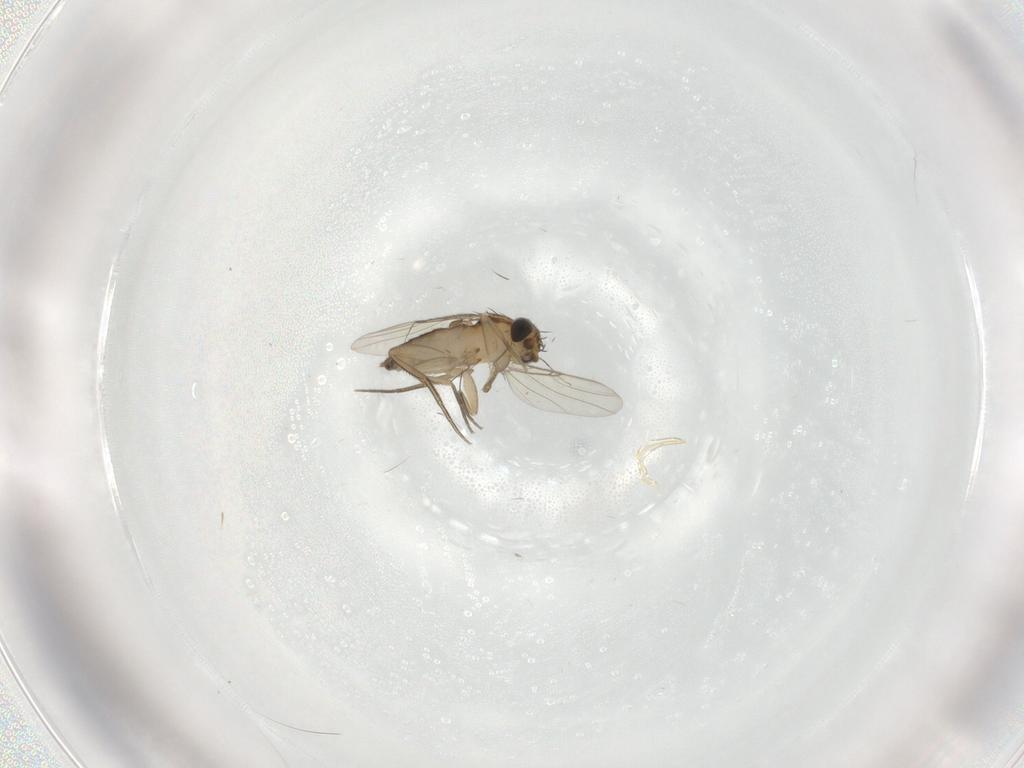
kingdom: Animalia
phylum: Arthropoda
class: Insecta
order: Diptera
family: Phoridae
